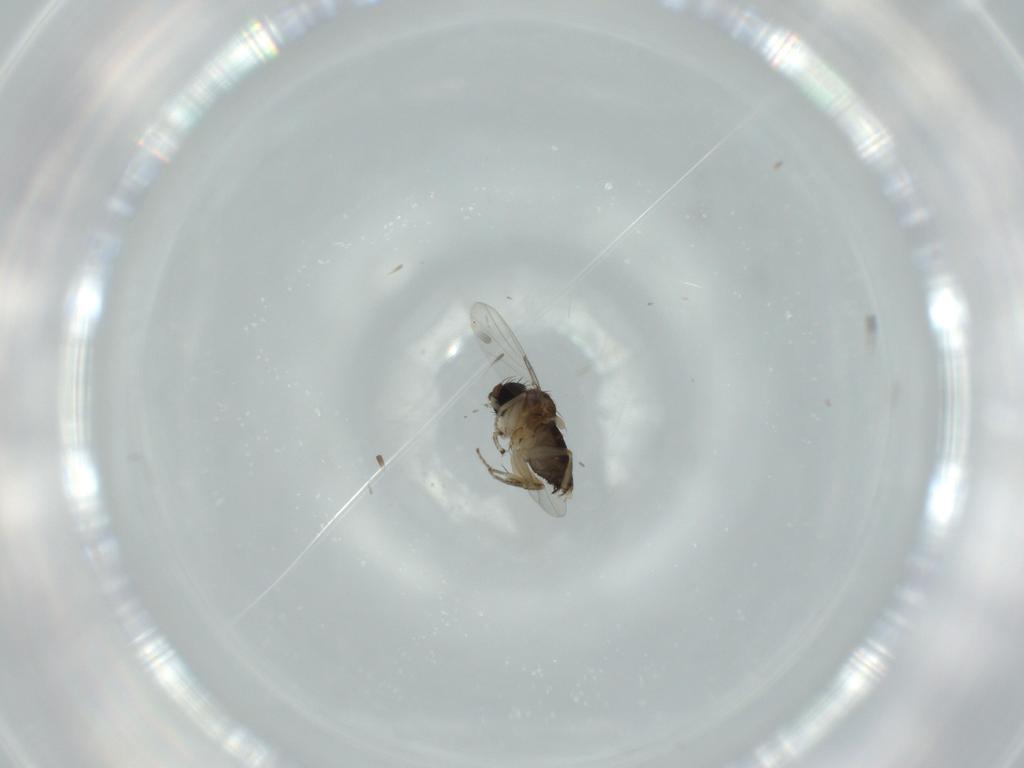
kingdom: Animalia
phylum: Arthropoda
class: Insecta
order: Diptera
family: Phoridae
